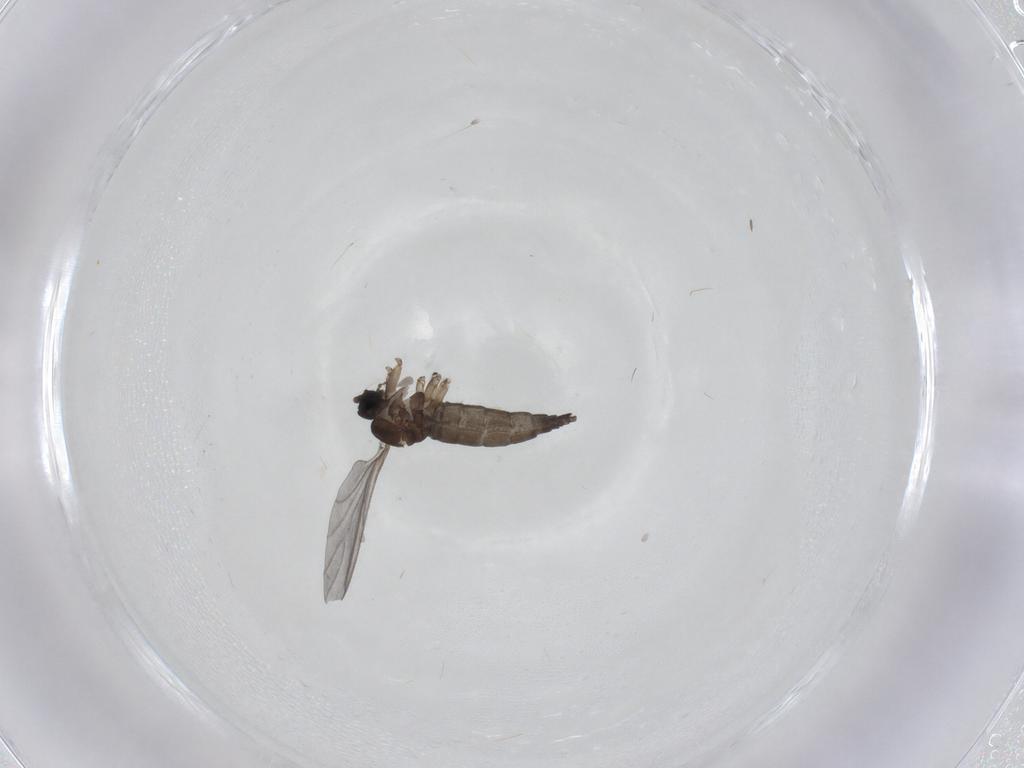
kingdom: Animalia
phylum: Arthropoda
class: Insecta
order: Diptera
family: Sciaridae
